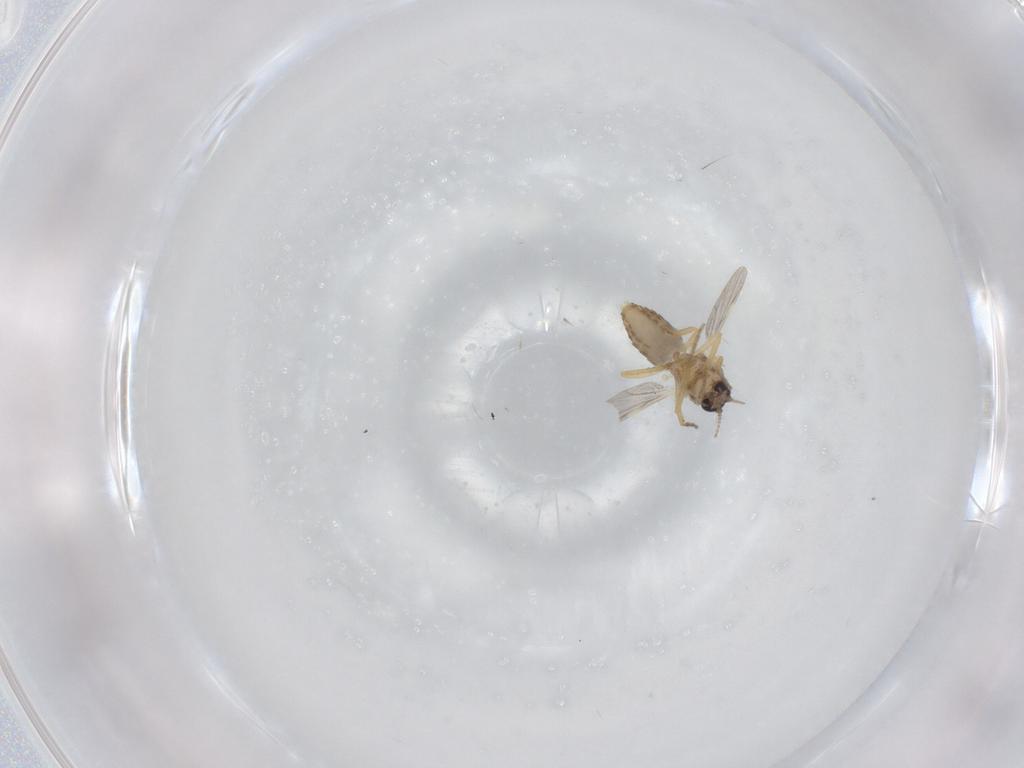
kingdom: Animalia
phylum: Arthropoda
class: Insecta
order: Diptera
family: Ceratopogonidae
